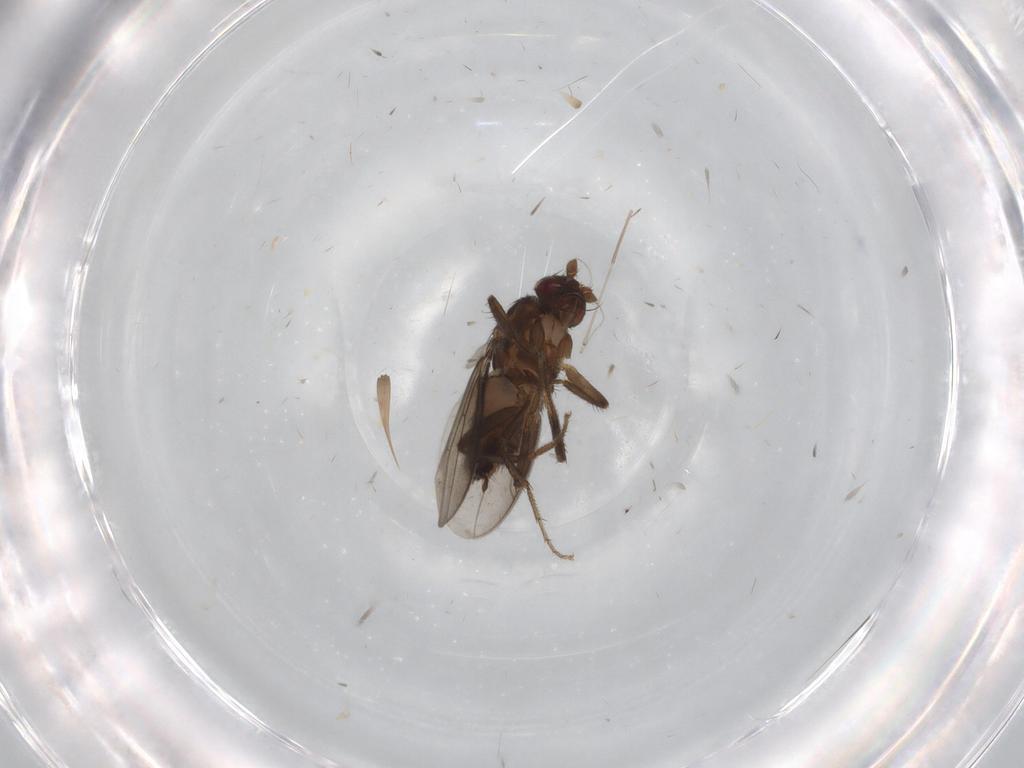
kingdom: Animalia
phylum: Arthropoda
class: Insecta
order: Diptera
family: Sphaeroceridae
